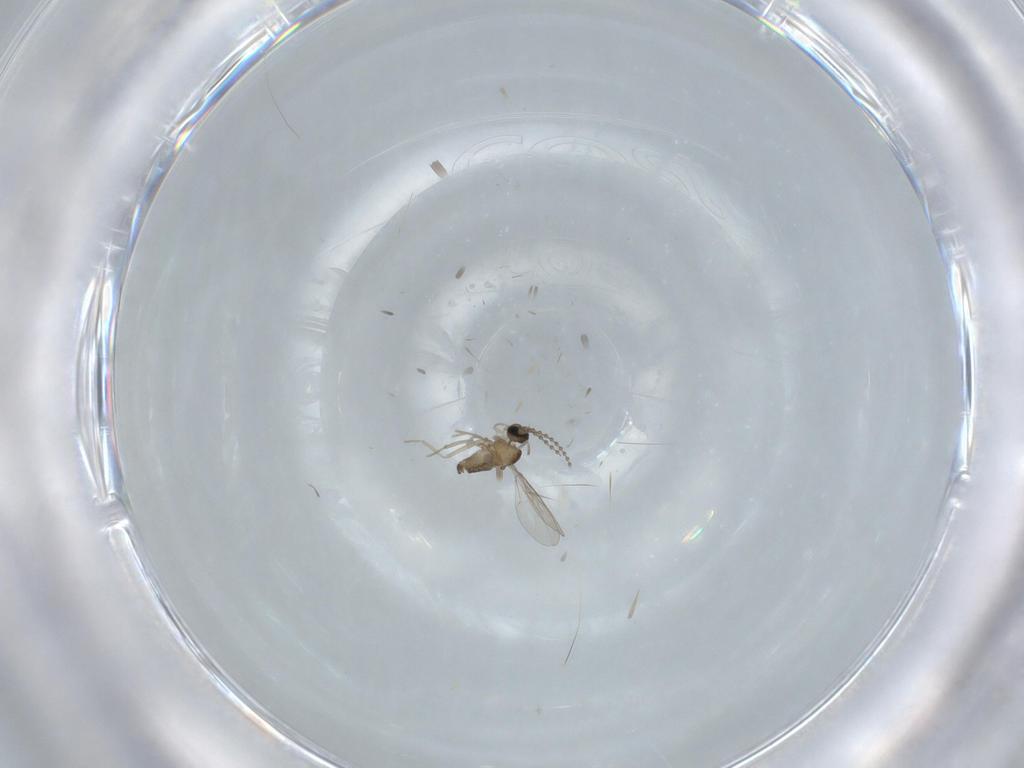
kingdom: Animalia
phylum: Arthropoda
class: Insecta
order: Diptera
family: Cecidomyiidae
